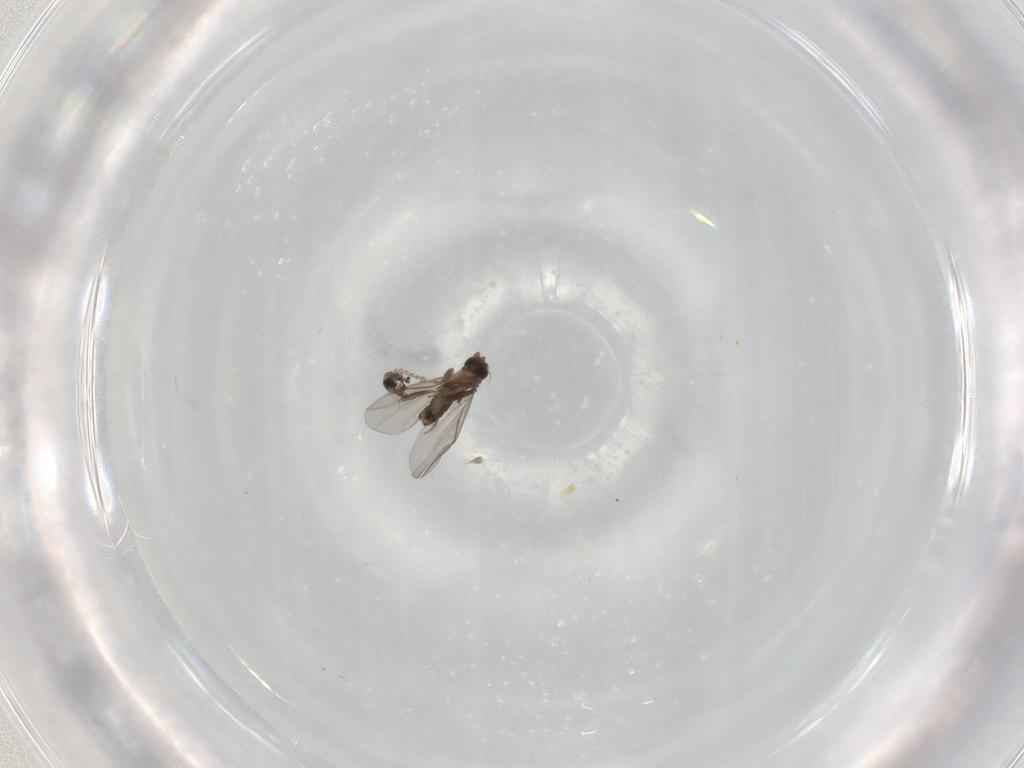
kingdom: Animalia
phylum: Arthropoda
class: Insecta
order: Diptera
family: Cecidomyiidae
